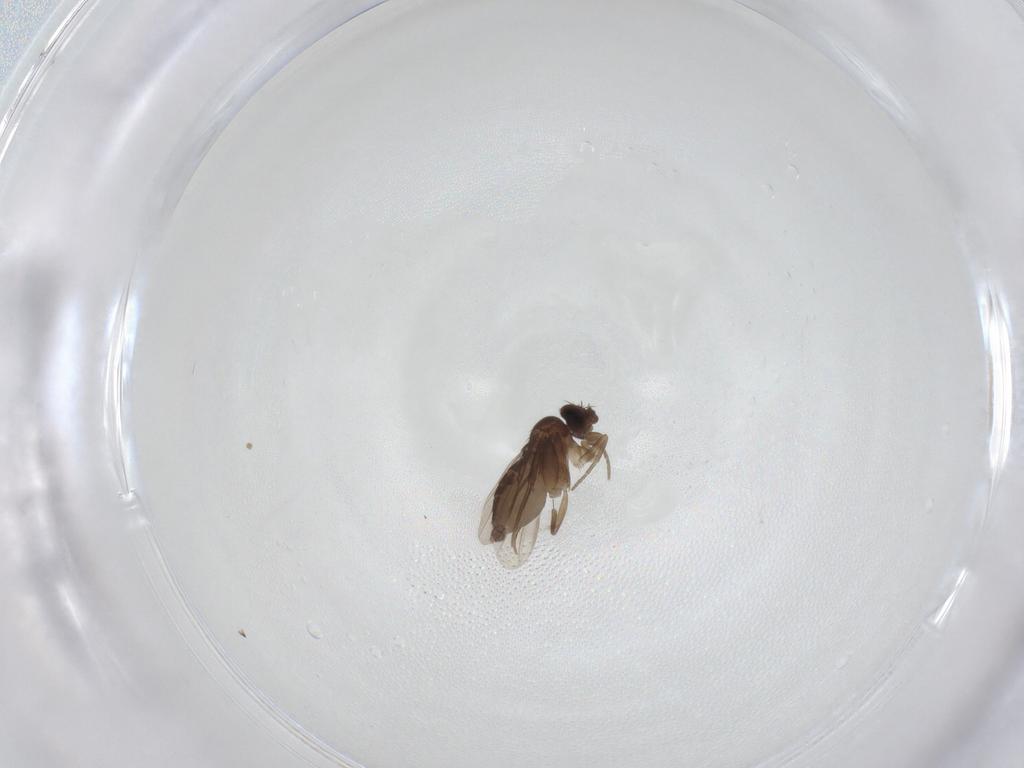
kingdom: Animalia
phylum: Arthropoda
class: Insecta
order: Diptera
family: Phoridae
